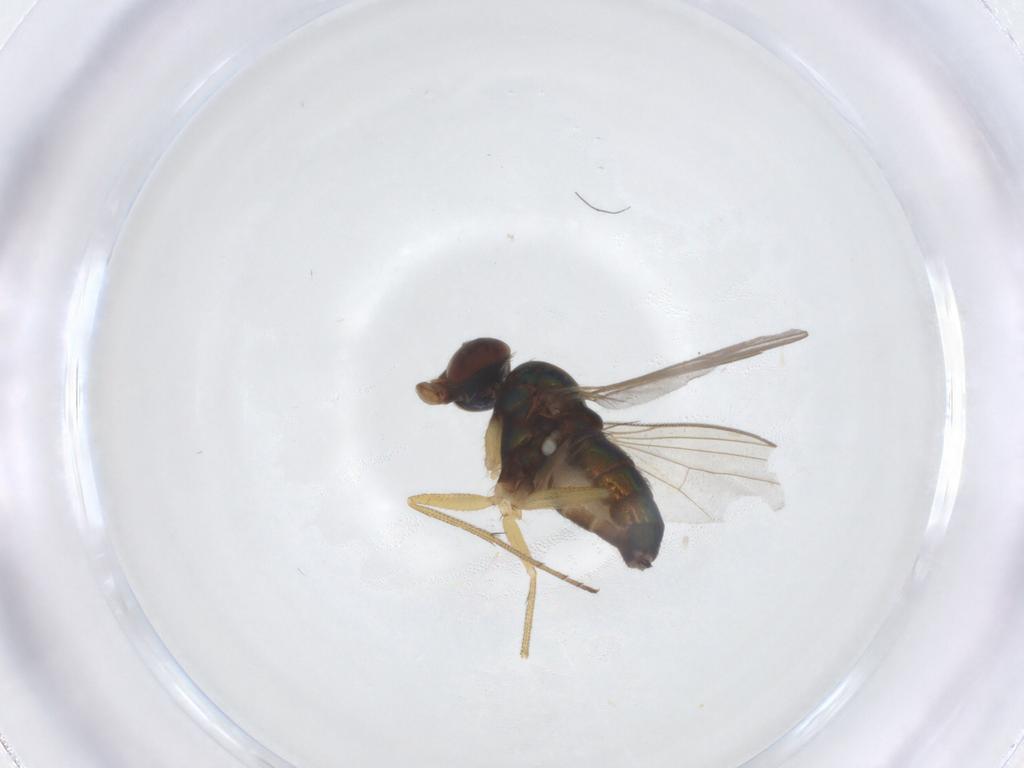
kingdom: Animalia
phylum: Arthropoda
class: Insecta
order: Diptera
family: Dolichopodidae
